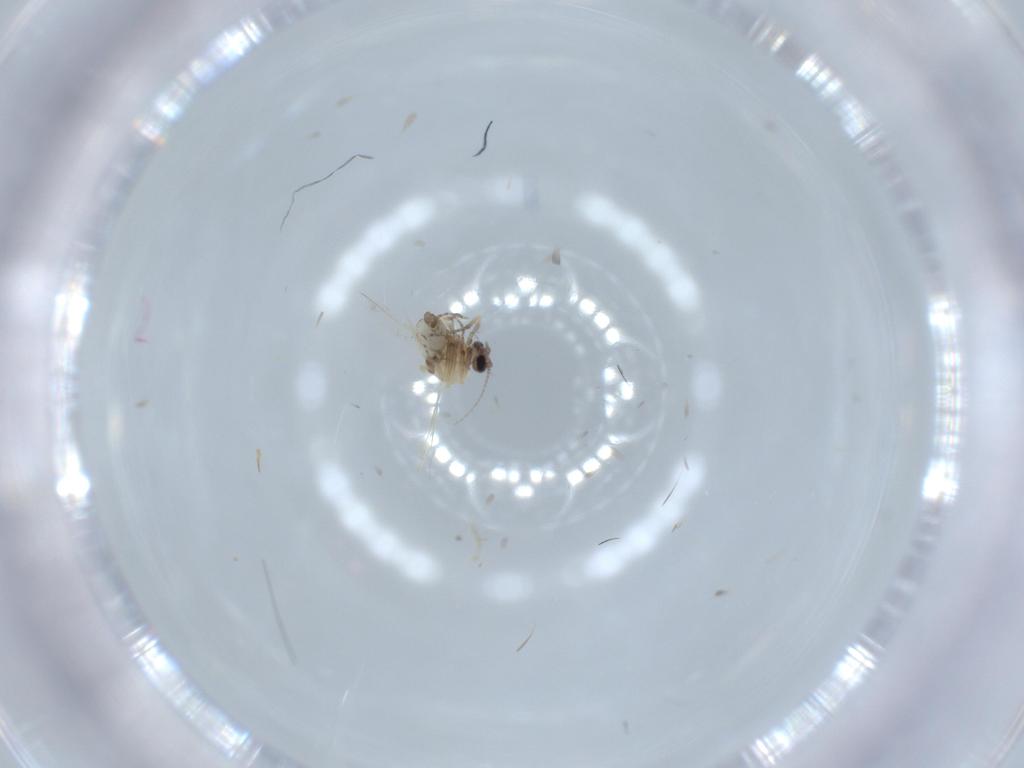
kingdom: Animalia
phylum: Arthropoda
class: Insecta
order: Diptera
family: Ceratopogonidae
